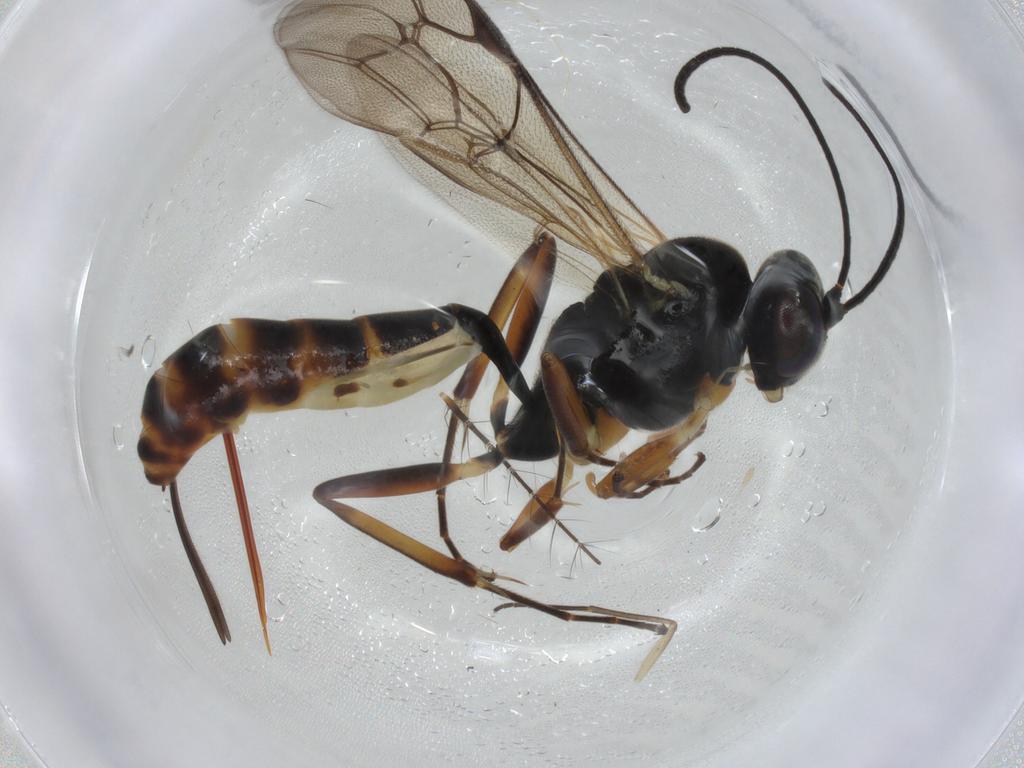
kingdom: Animalia
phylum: Arthropoda
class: Insecta
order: Hymenoptera
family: Ichneumonidae
